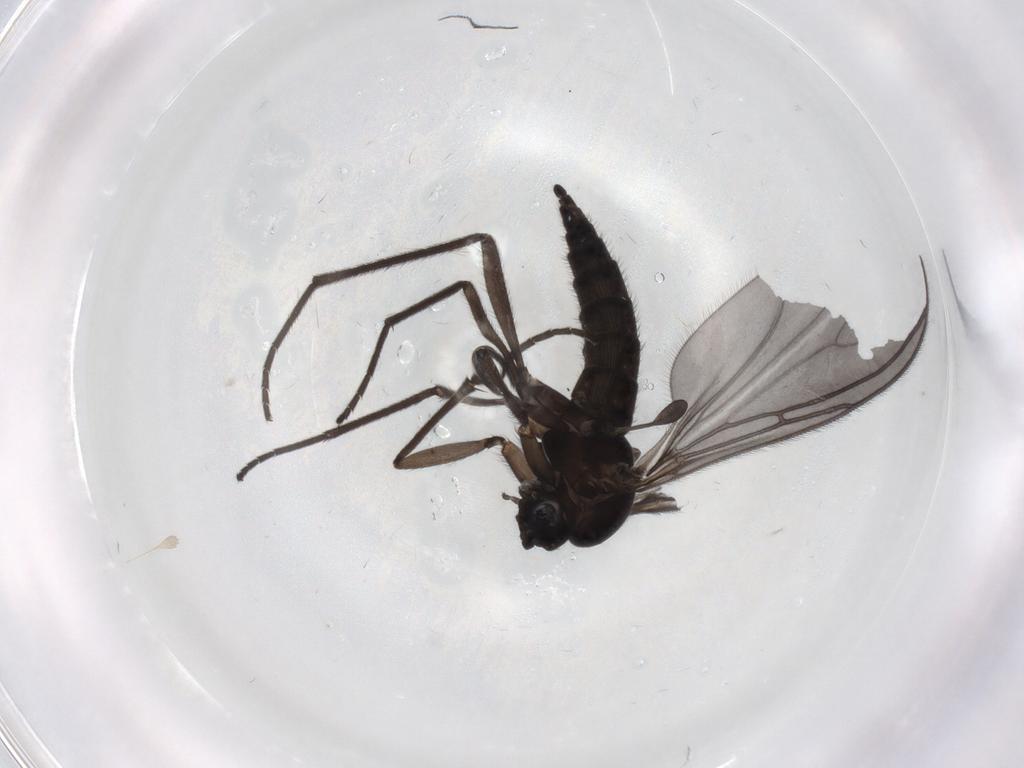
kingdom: Animalia
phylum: Arthropoda
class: Insecta
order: Diptera
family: Sciaridae
